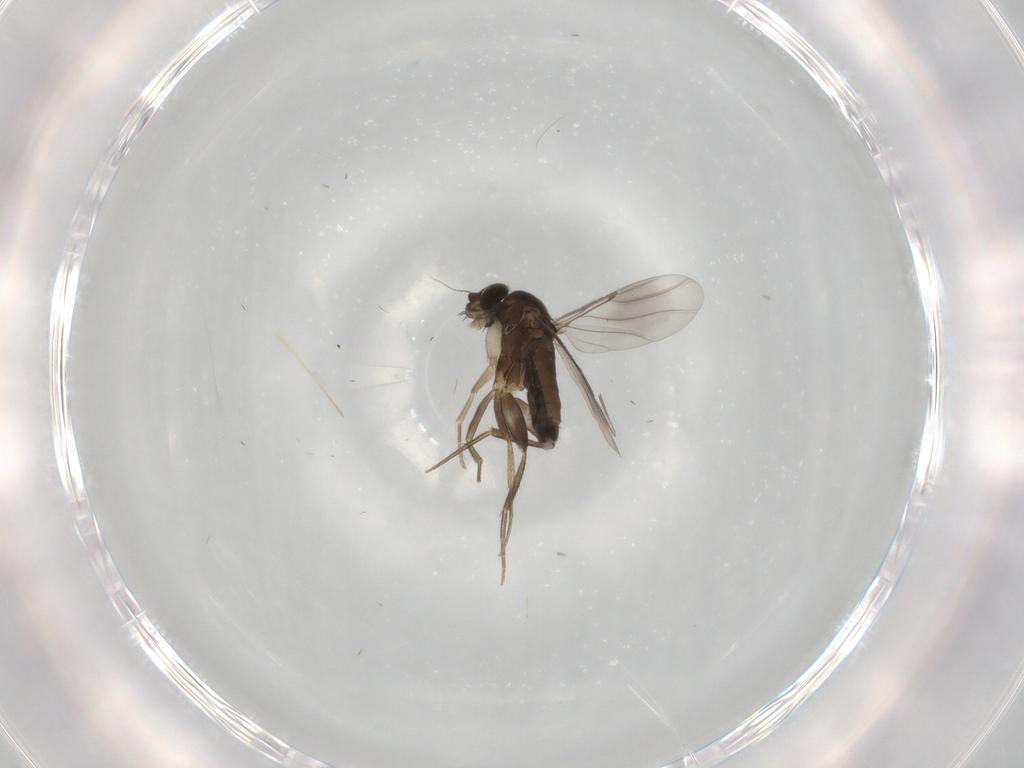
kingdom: Animalia
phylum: Arthropoda
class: Insecta
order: Diptera
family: Phoridae
